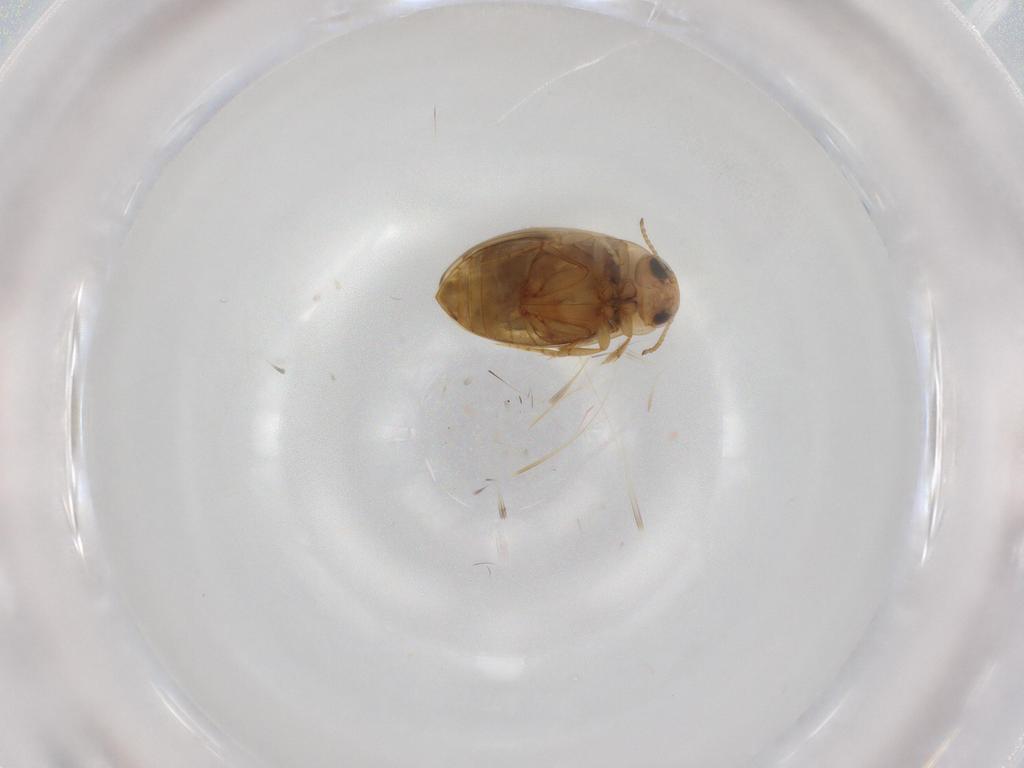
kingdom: Animalia
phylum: Arthropoda
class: Insecta
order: Coleoptera
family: Dytiscidae
